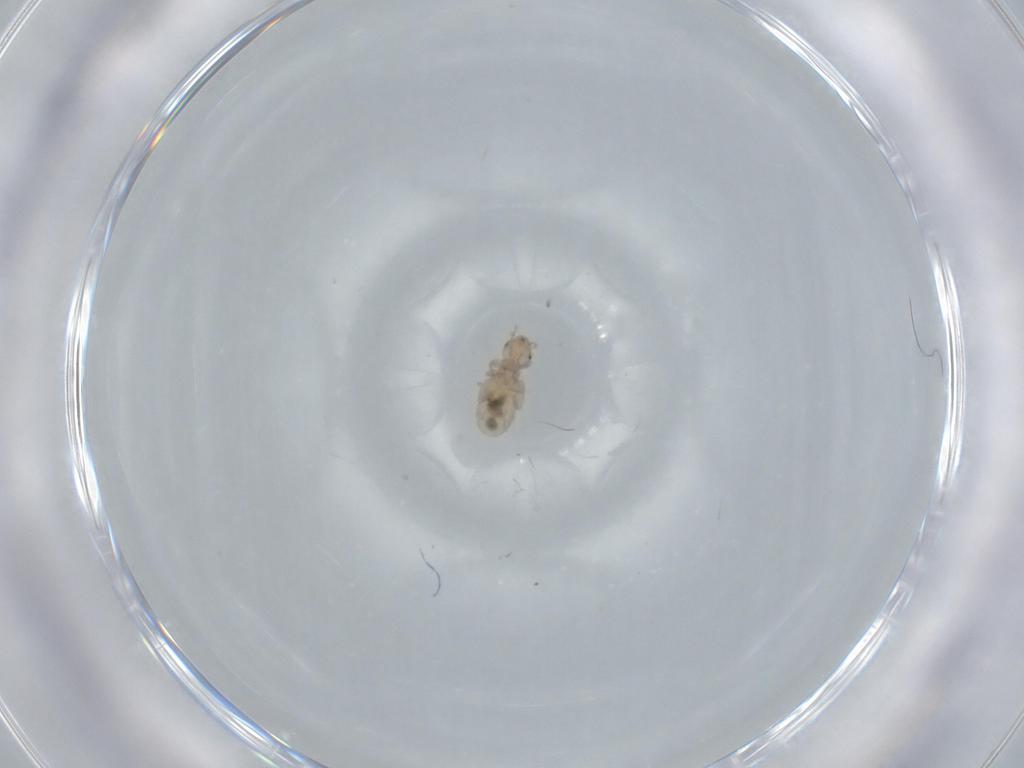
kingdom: Animalia
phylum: Arthropoda
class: Insecta
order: Psocodea
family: Liposcelididae
